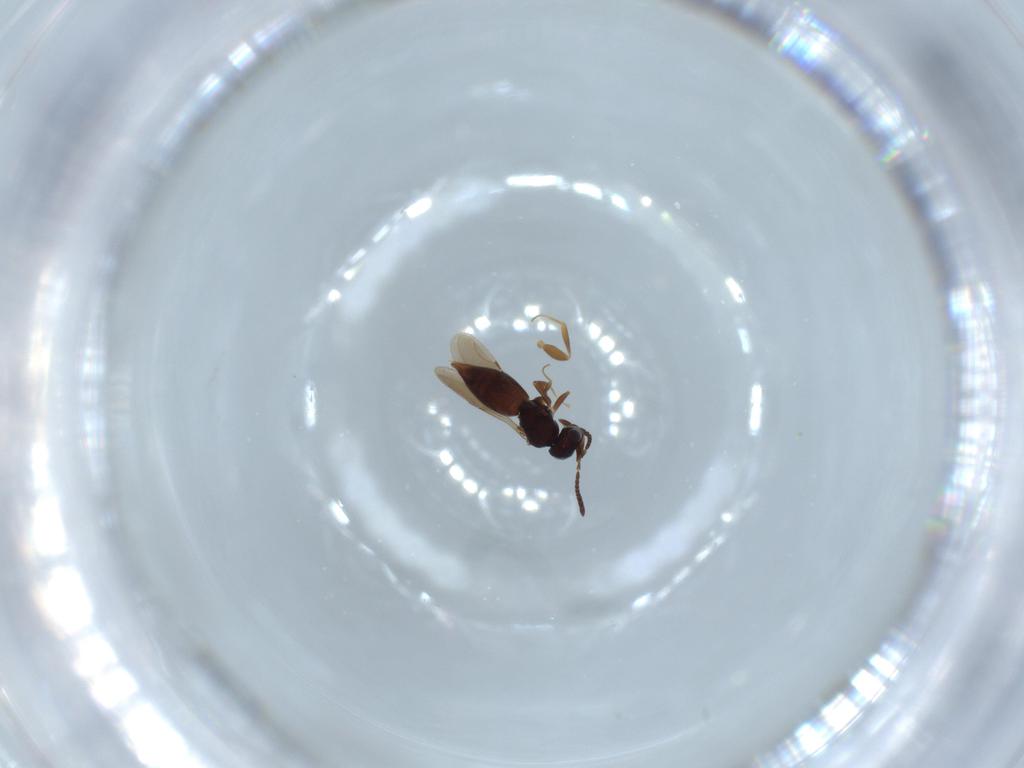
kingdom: Animalia
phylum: Arthropoda
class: Insecta
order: Hymenoptera
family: Ceraphronidae
